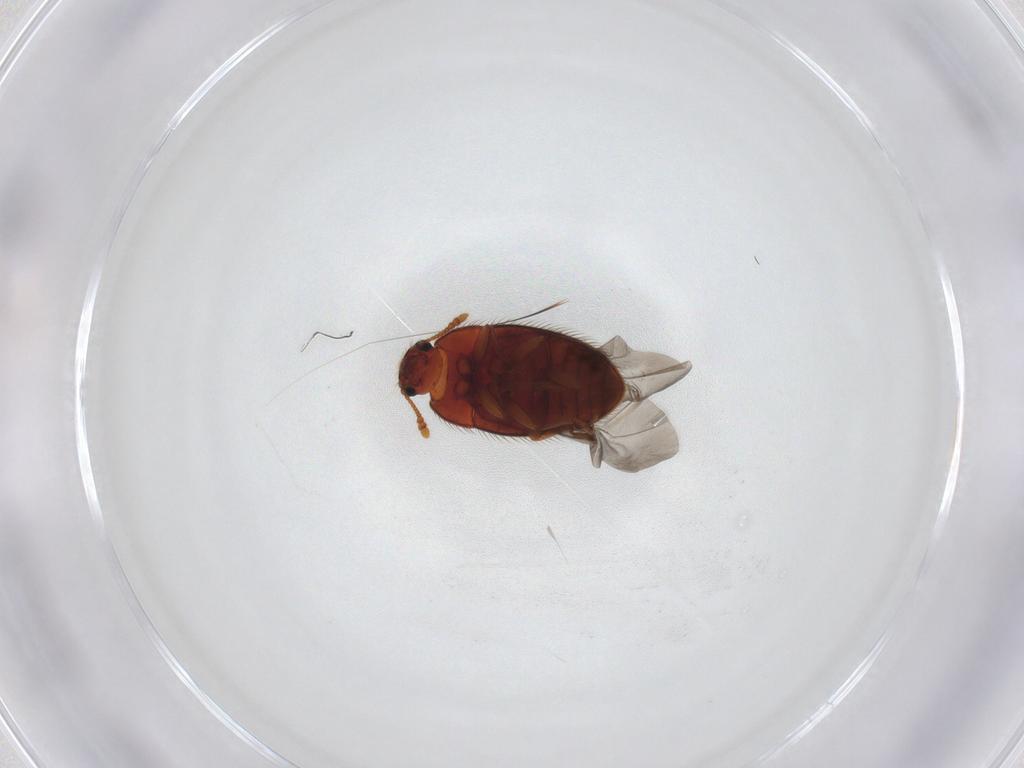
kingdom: Animalia
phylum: Arthropoda
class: Insecta
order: Coleoptera
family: Biphyllidae
